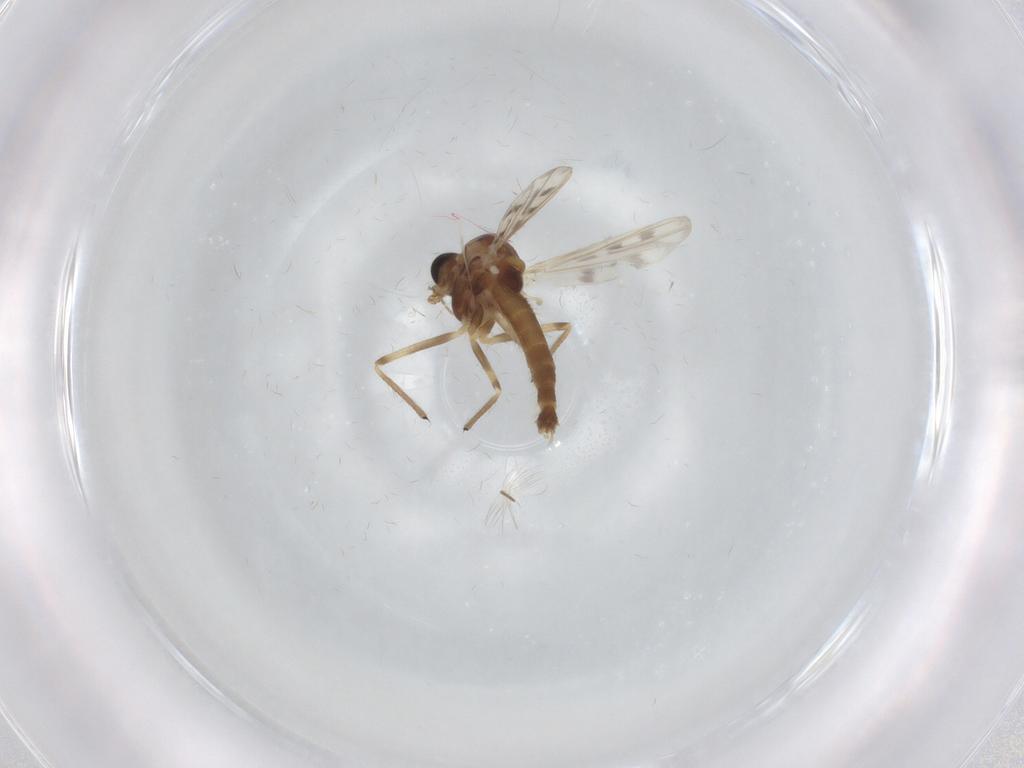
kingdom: Animalia
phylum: Arthropoda
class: Insecta
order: Diptera
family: Chironomidae
